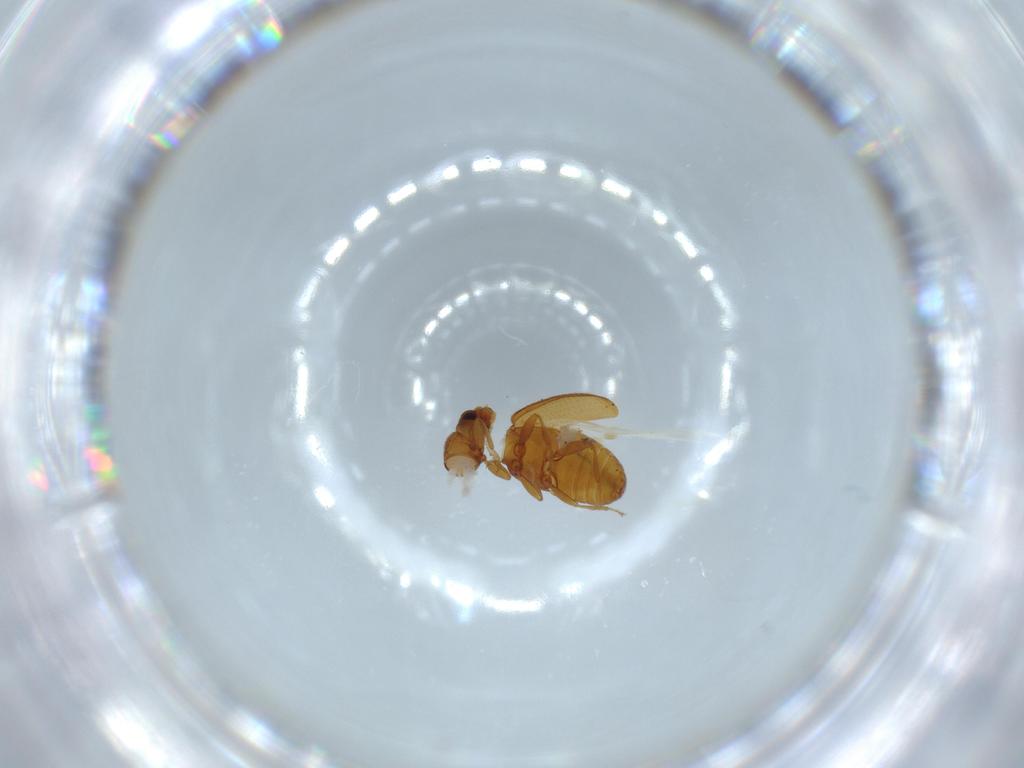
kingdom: Animalia
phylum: Arthropoda
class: Insecta
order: Coleoptera
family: Latridiidae
